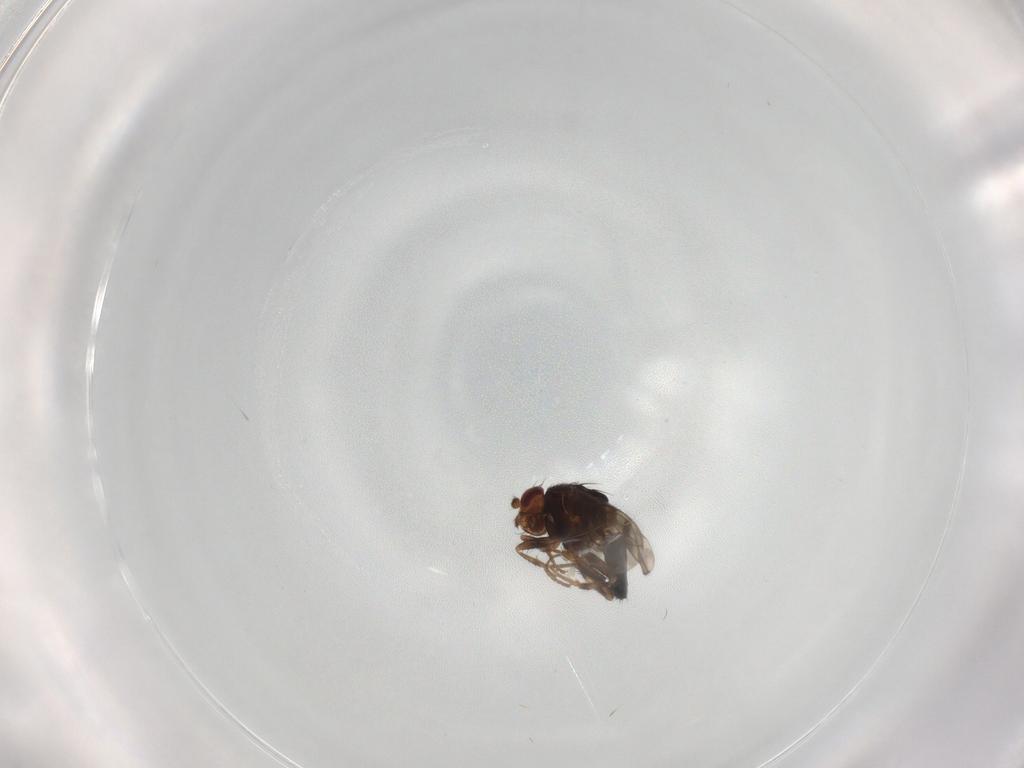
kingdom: Animalia
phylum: Arthropoda
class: Insecta
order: Diptera
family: Sphaeroceridae
